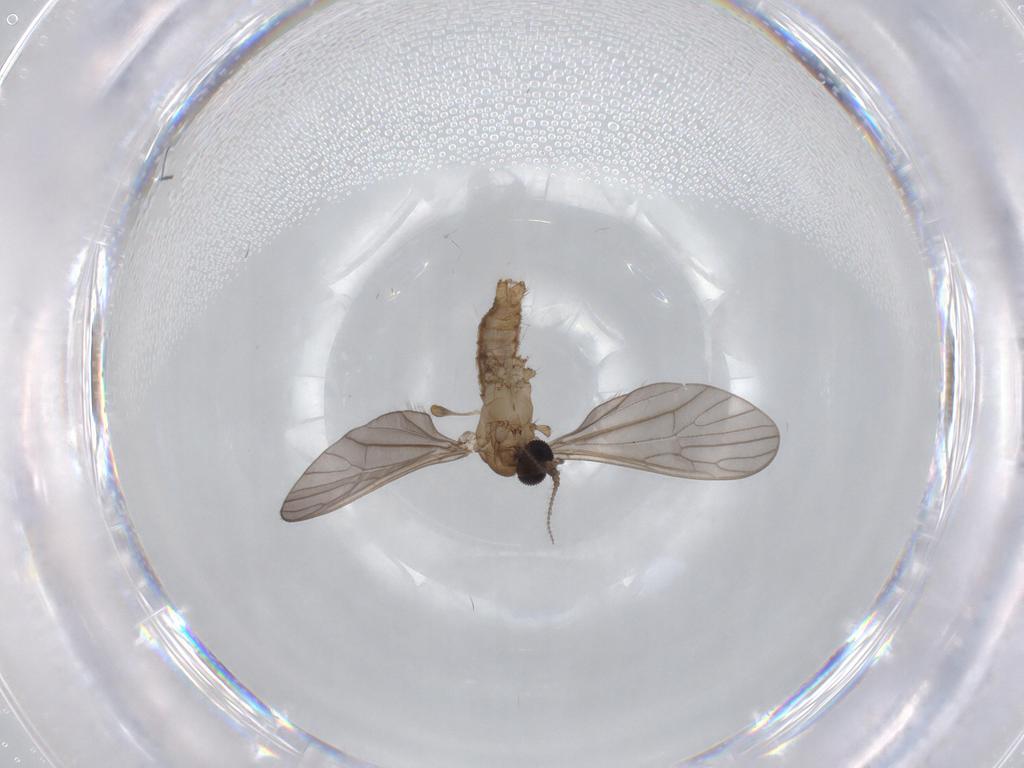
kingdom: Animalia
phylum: Arthropoda
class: Insecta
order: Diptera
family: Limoniidae
